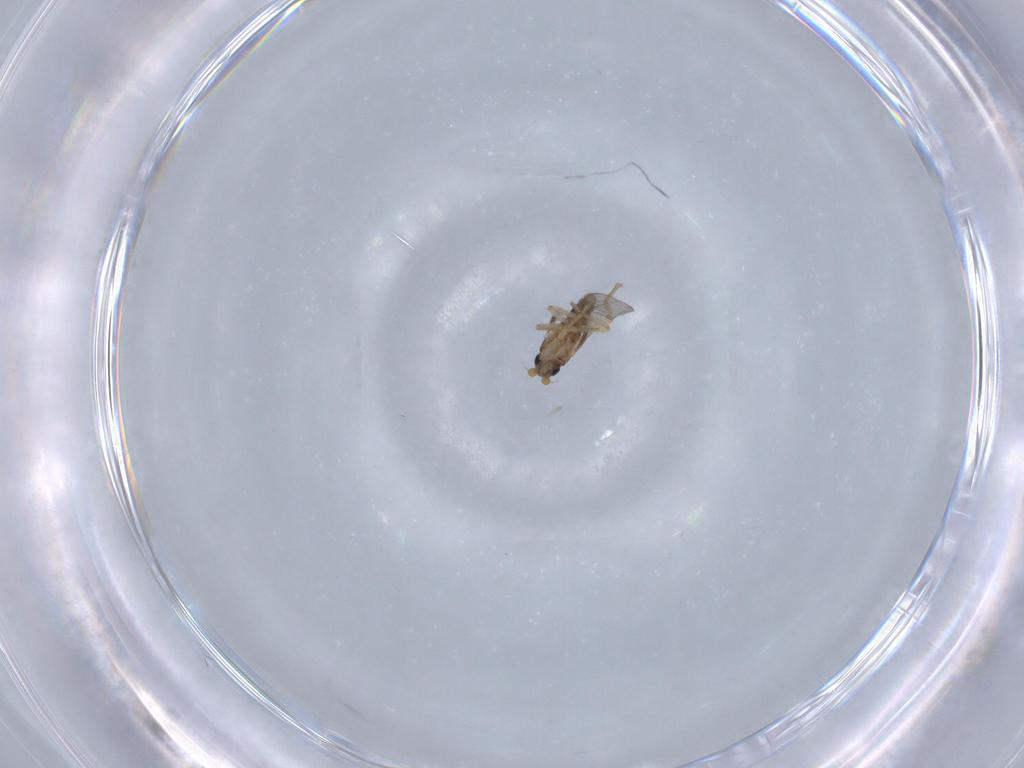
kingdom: Animalia
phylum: Arthropoda
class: Insecta
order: Diptera
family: Phoridae
